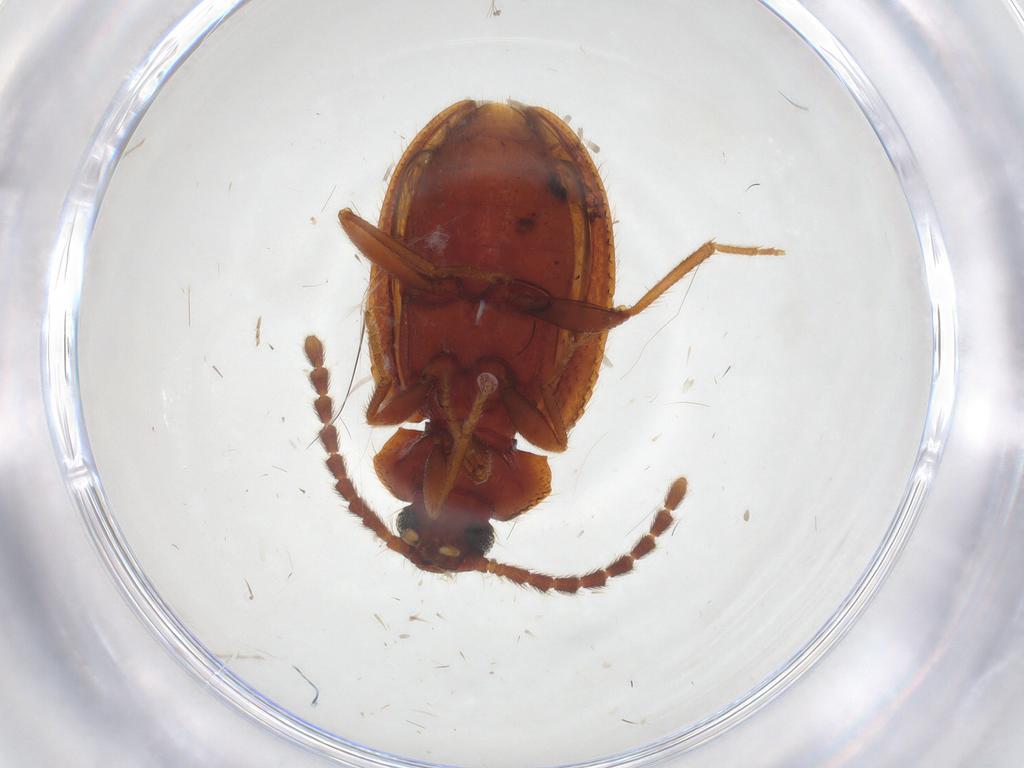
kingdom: Animalia
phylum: Arthropoda
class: Insecta
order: Coleoptera
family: Tenebrionidae
